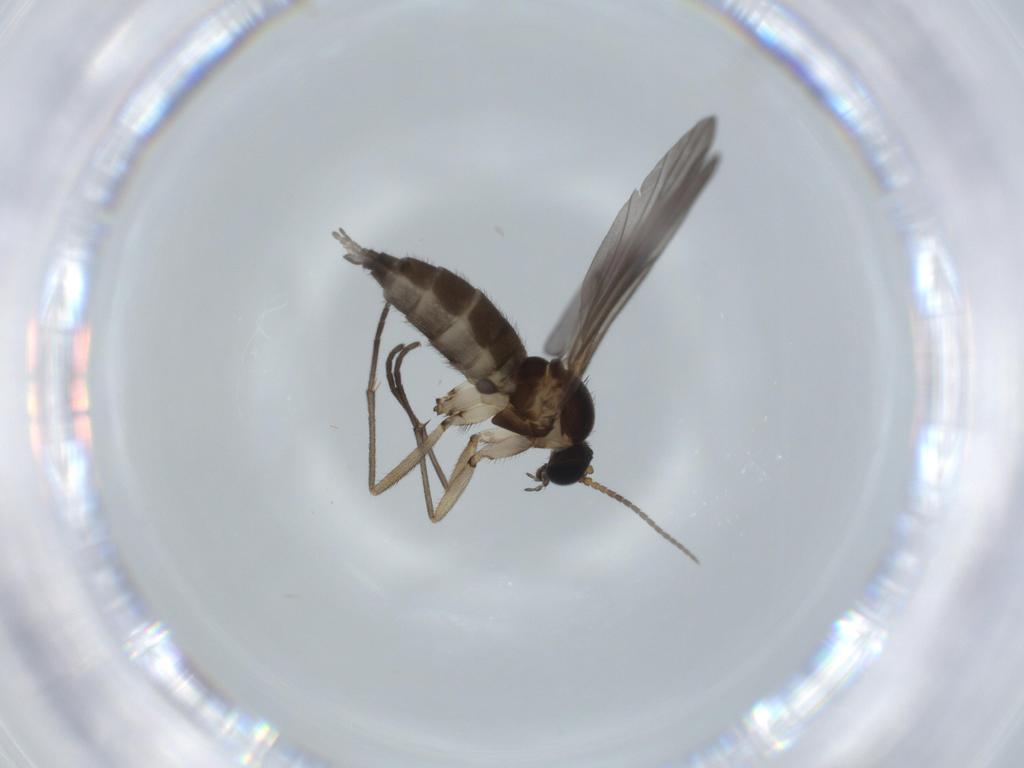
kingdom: Animalia
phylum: Arthropoda
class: Insecta
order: Diptera
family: Sciaridae
